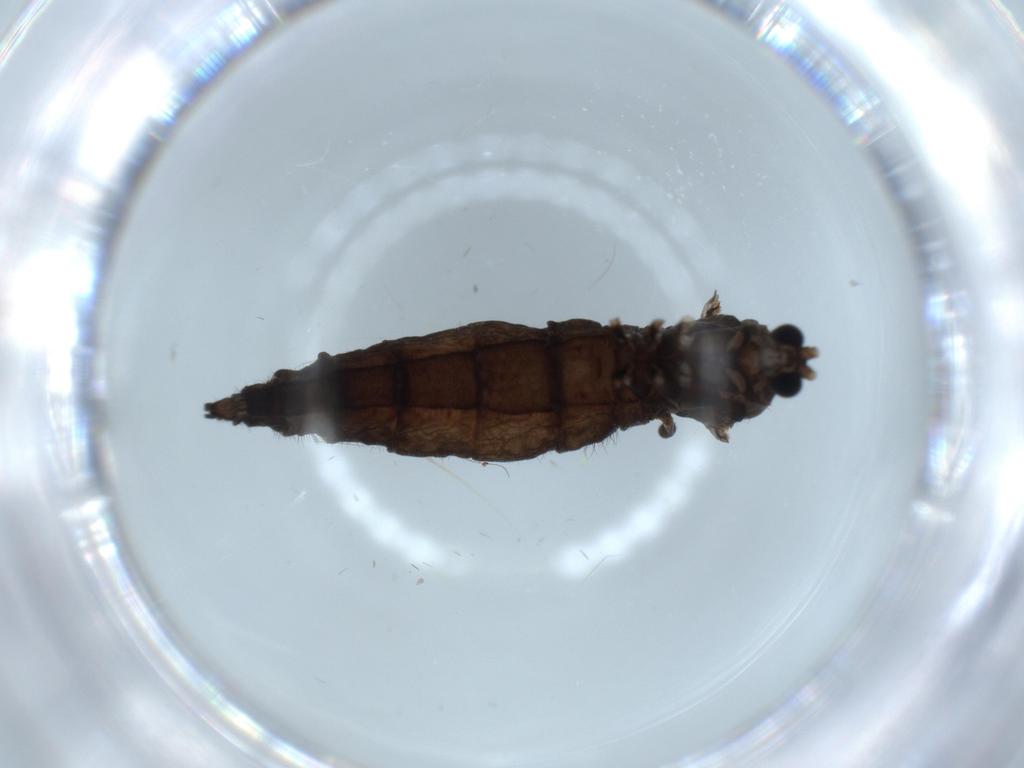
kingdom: Animalia
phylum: Arthropoda
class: Insecta
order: Diptera
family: Sciaridae
